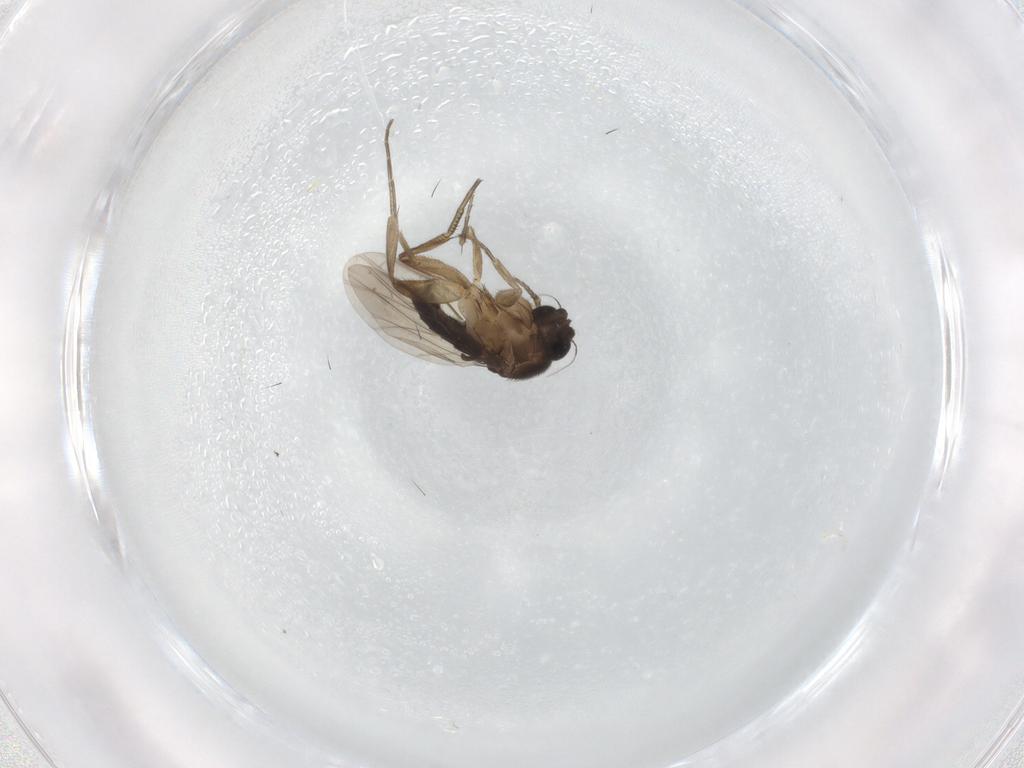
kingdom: Animalia
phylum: Arthropoda
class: Insecta
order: Diptera
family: Phoridae
